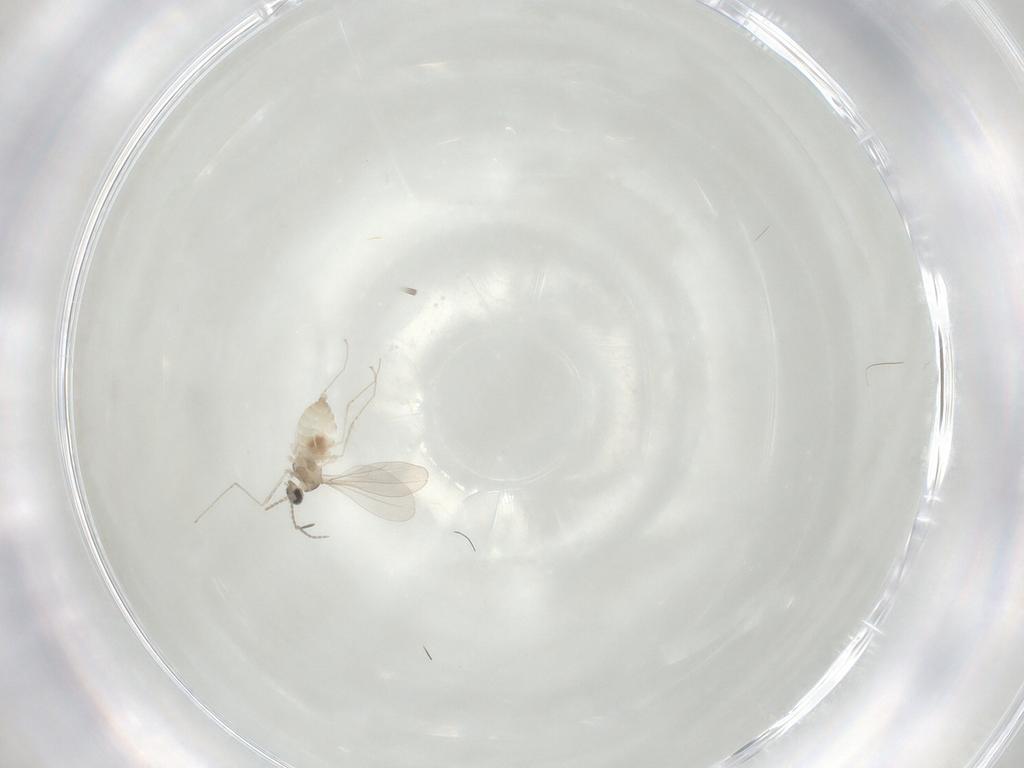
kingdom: Animalia
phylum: Arthropoda
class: Insecta
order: Diptera
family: Cecidomyiidae
